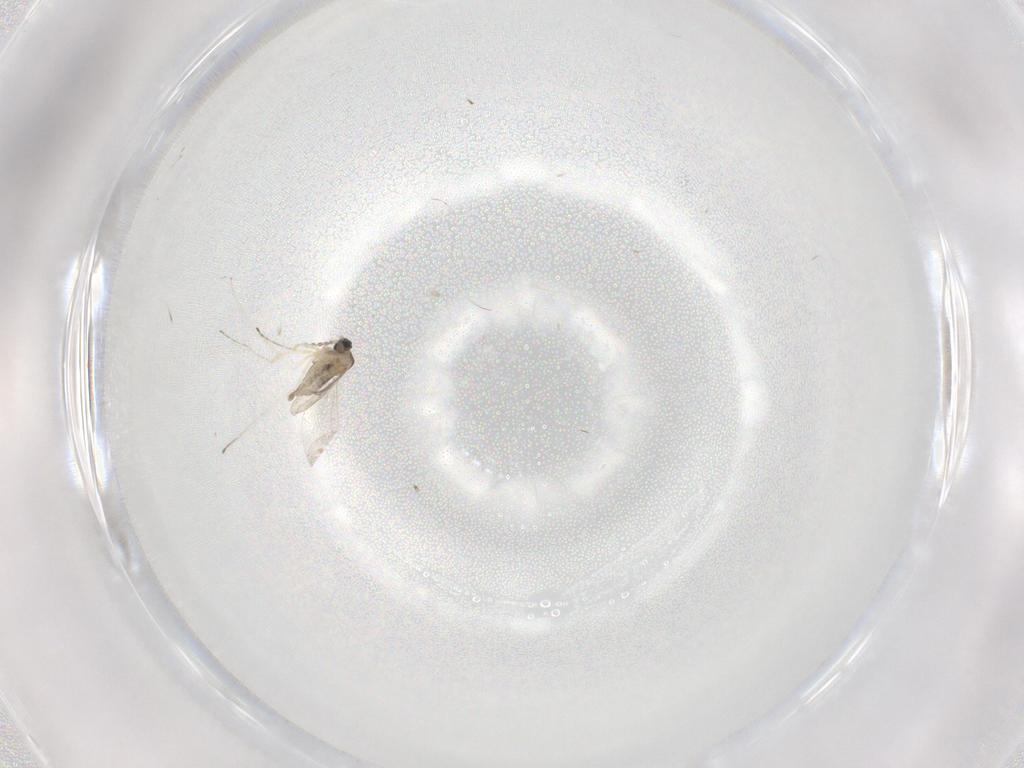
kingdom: Animalia
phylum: Arthropoda
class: Insecta
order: Diptera
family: Cecidomyiidae
